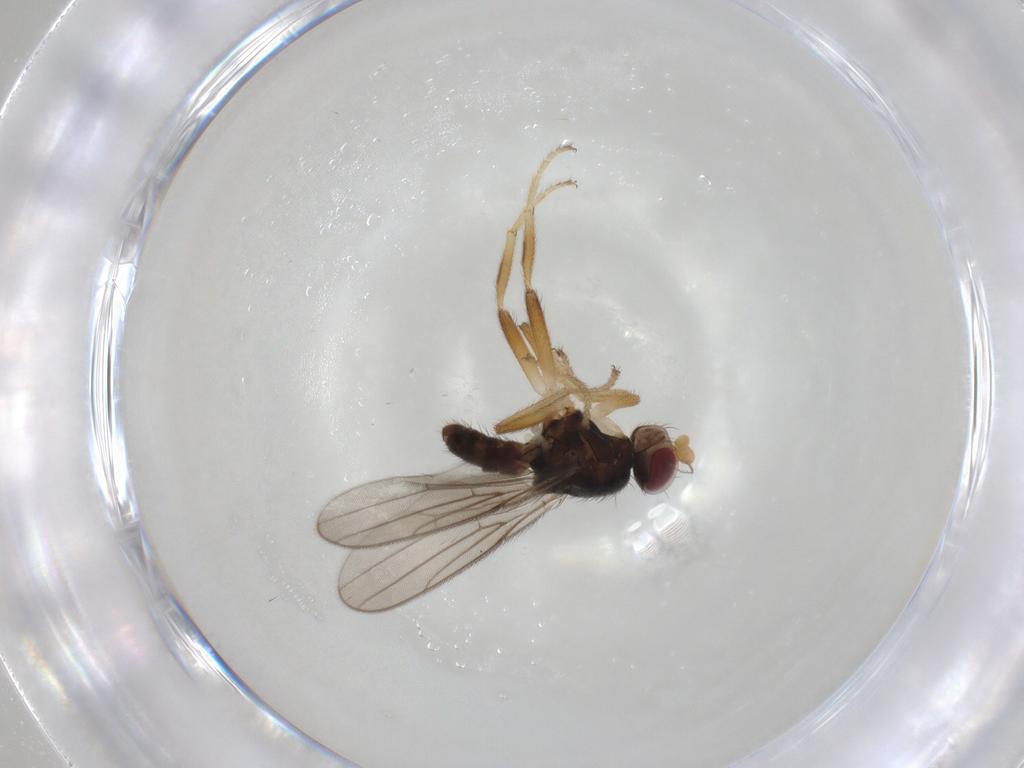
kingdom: Animalia
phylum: Arthropoda
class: Insecta
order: Diptera
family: Chloropidae
